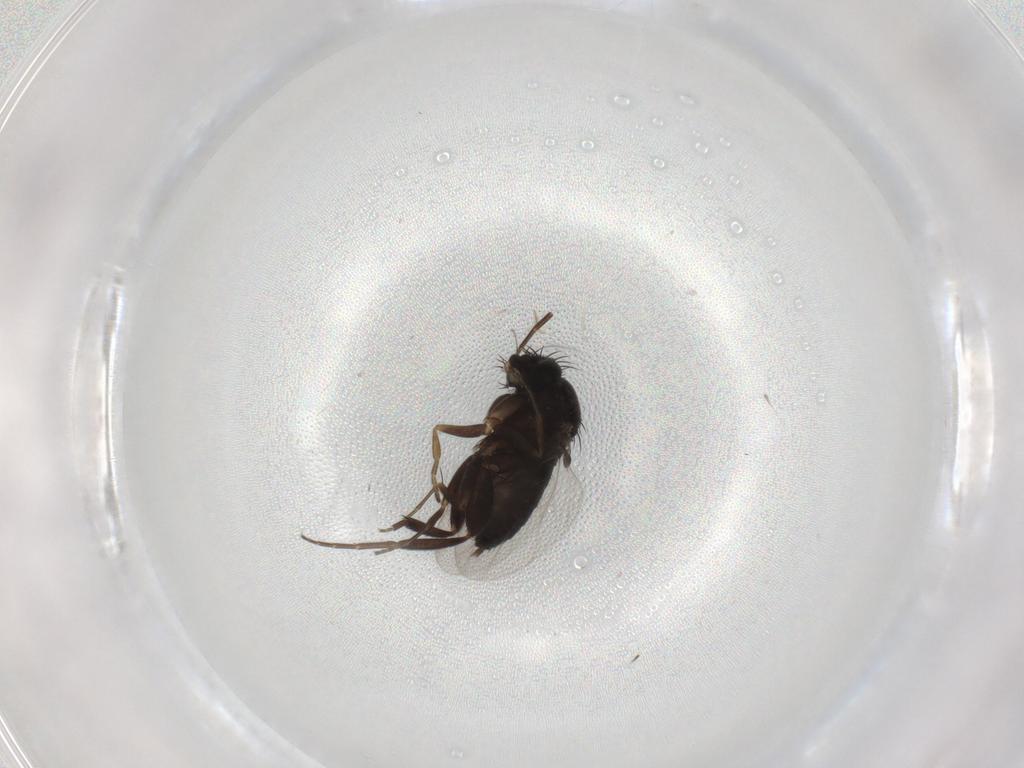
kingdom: Animalia
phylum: Arthropoda
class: Insecta
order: Diptera
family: Phoridae
